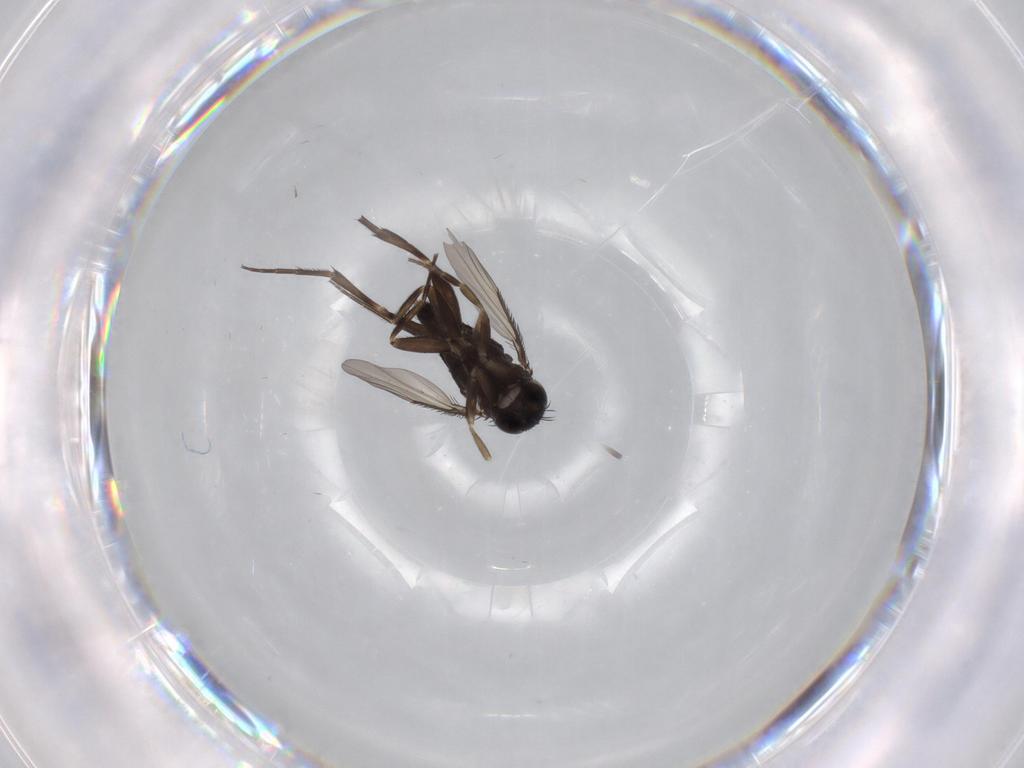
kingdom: Animalia
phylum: Arthropoda
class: Insecta
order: Diptera
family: Phoridae
